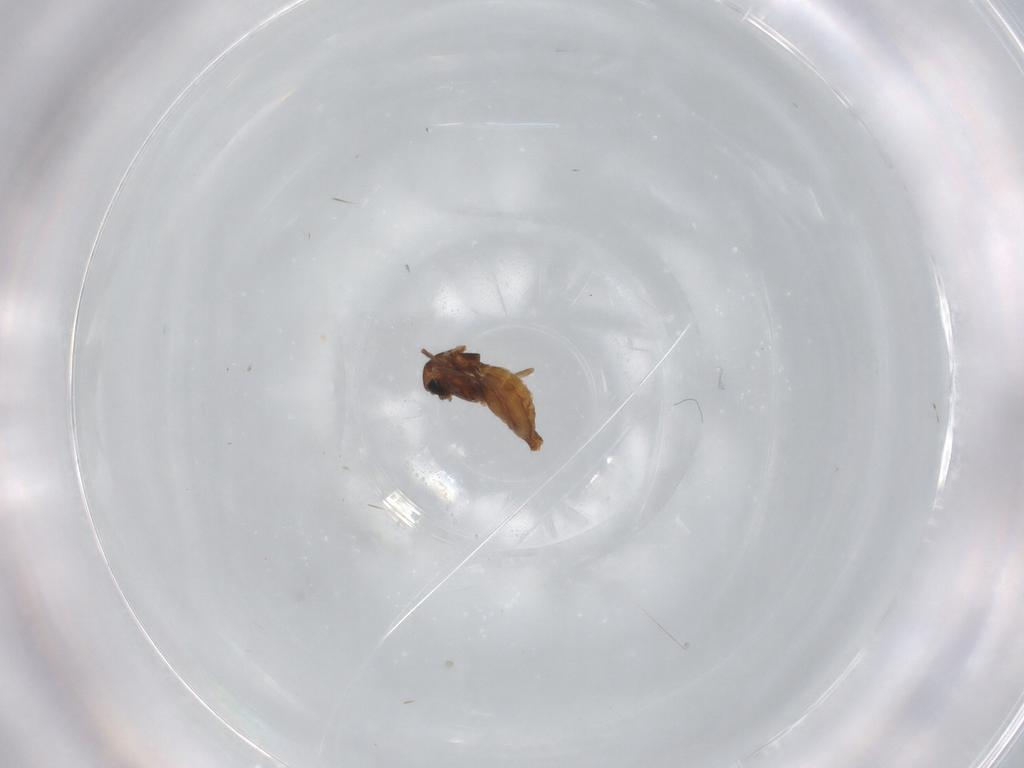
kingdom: Animalia
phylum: Arthropoda
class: Insecta
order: Diptera
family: Chironomidae
